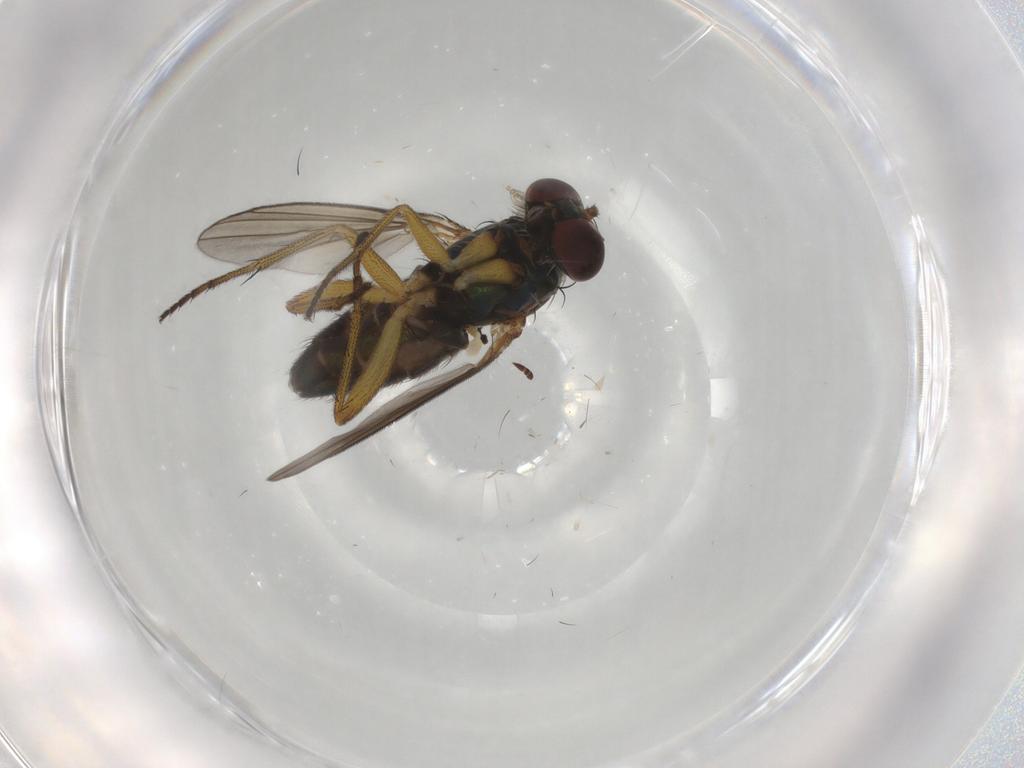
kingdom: Animalia
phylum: Arthropoda
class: Insecta
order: Diptera
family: Ceratopogonidae
